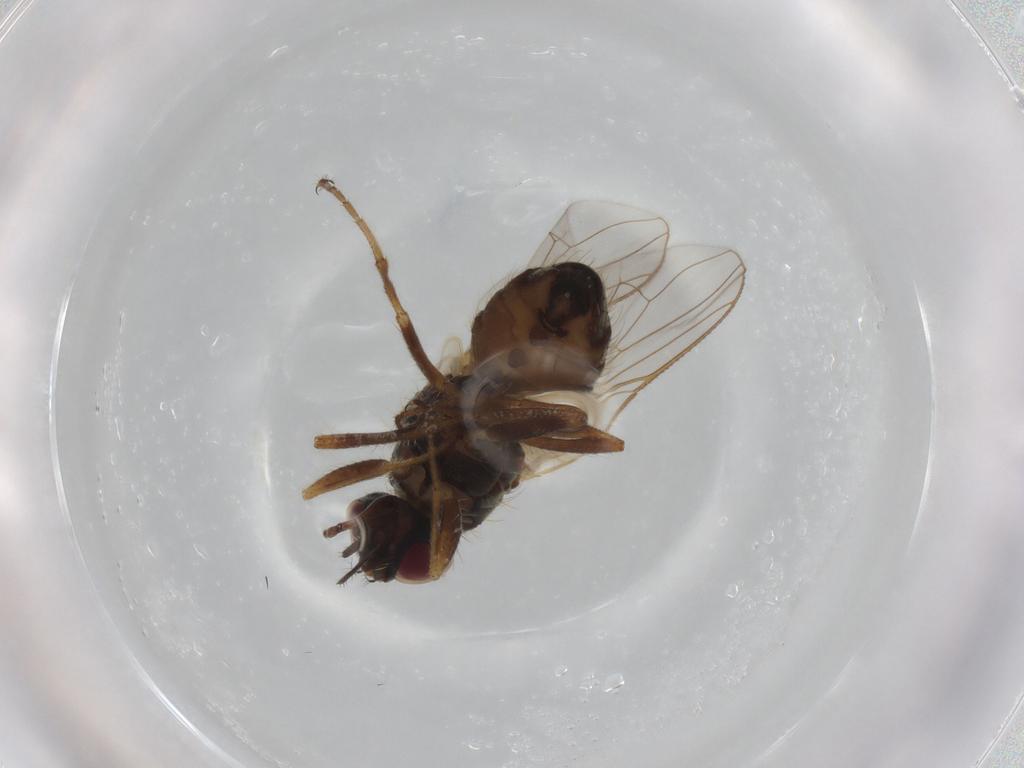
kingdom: Animalia
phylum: Arthropoda
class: Insecta
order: Diptera
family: Muscidae
